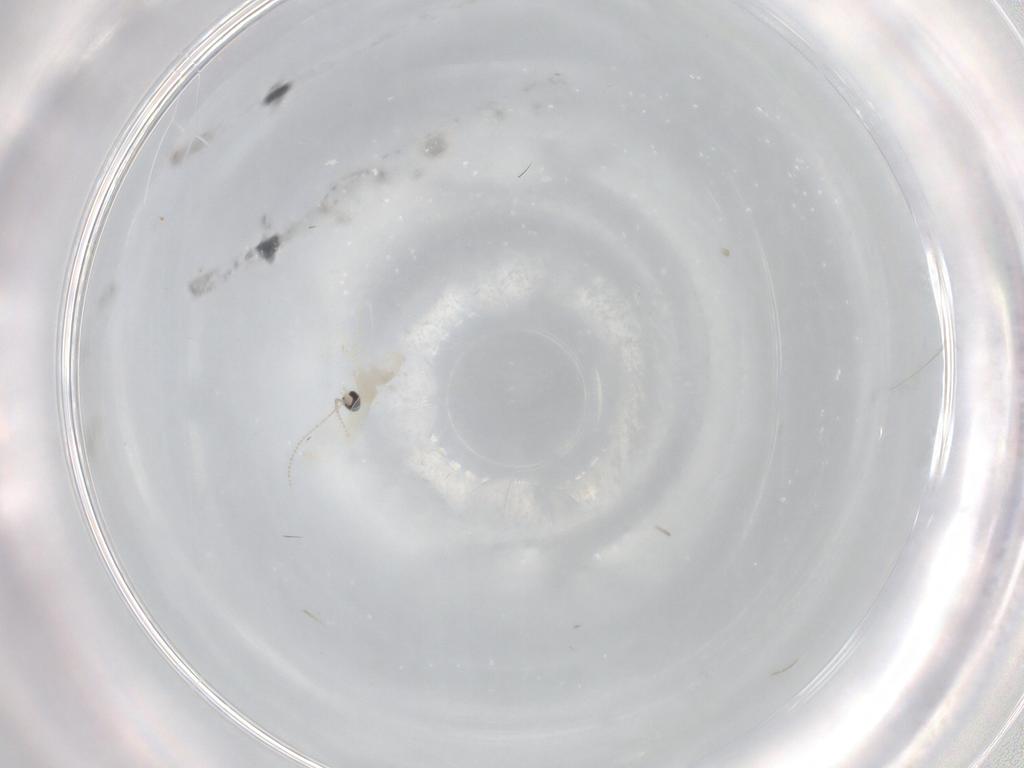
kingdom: Animalia
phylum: Arthropoda
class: Insecta
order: Diptera
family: Cecidomyiidae
